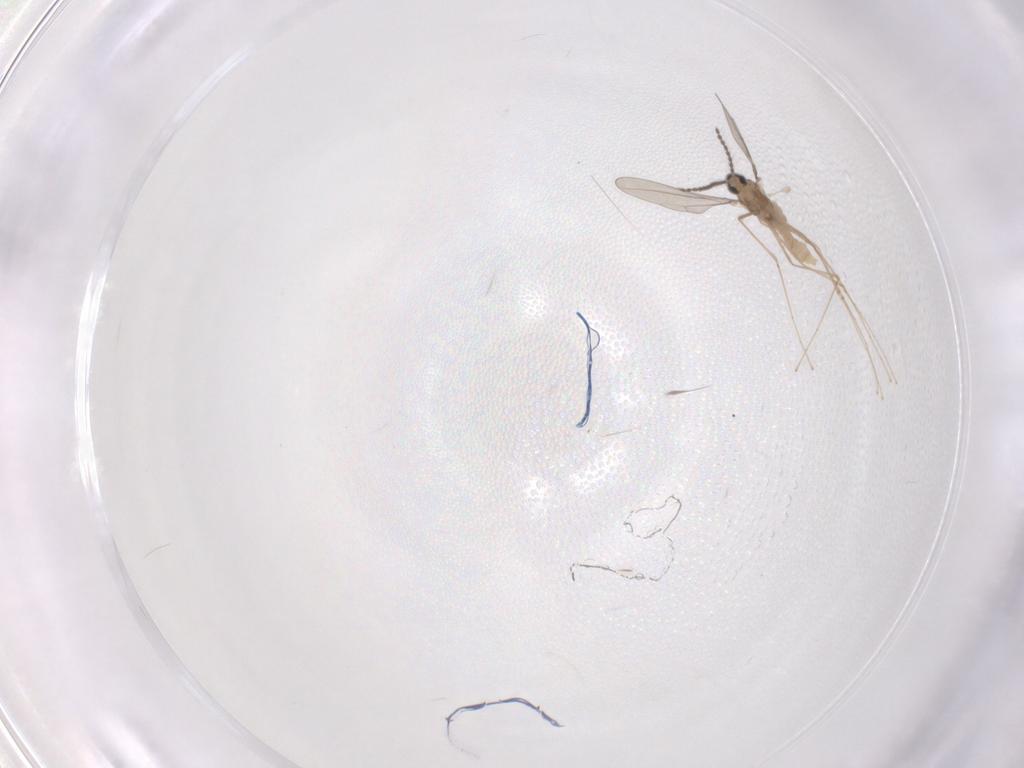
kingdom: Animalia
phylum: Arthropoda
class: Insecta
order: Diptera
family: Cecidomyiidae
